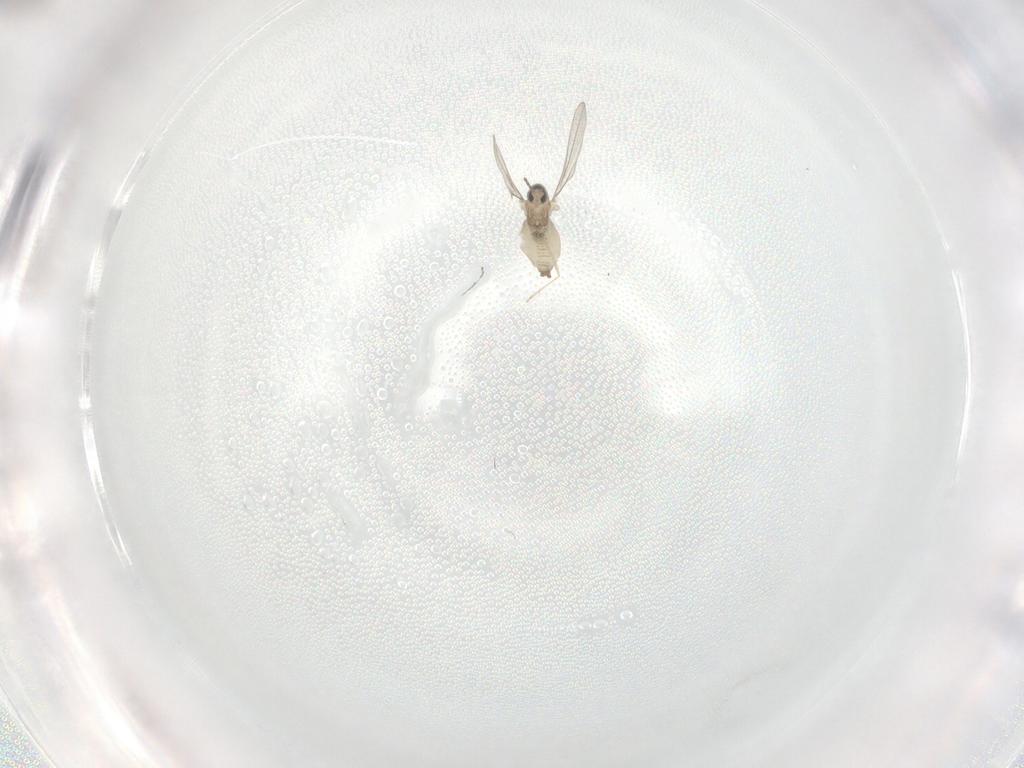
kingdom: Animalia
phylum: Arthropoda
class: Insecta
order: Diptera
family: Cecidomyiidae
